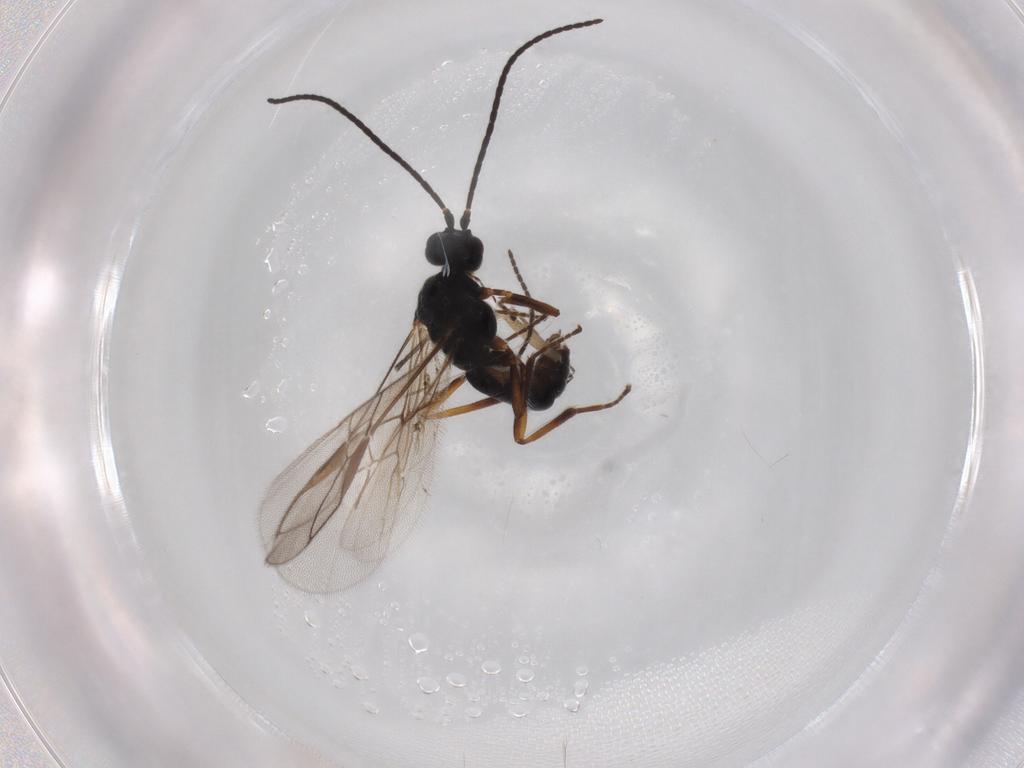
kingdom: Animalia
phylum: Arthropoda
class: Insecta
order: Hymenoptera
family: Braconidae
